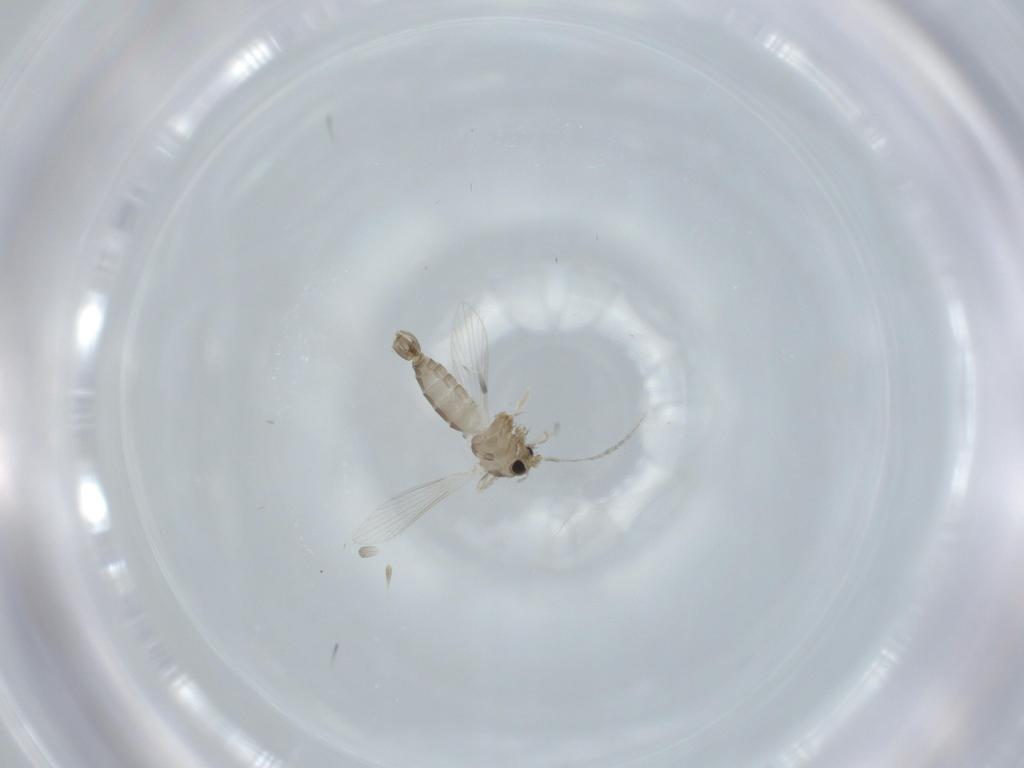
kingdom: Animalia
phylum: Arthropoda
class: Insecta
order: Diptera
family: Psychodidae
